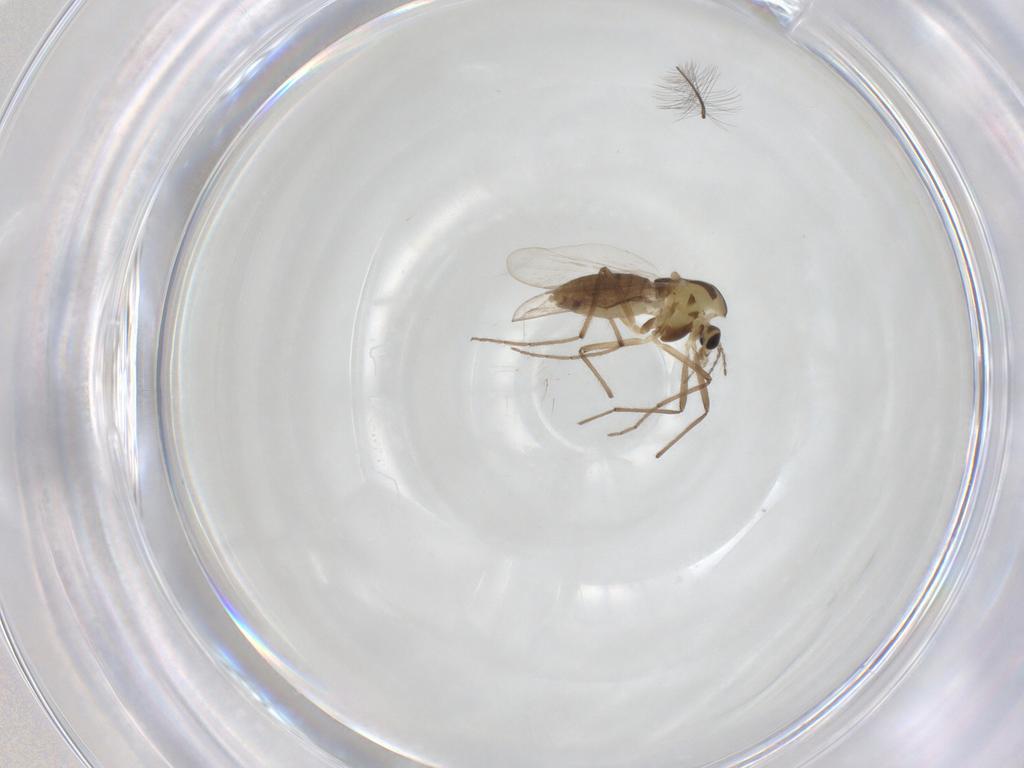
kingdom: Animalia
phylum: Arthropoda
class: Insecta
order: Diptera
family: Chironomidae
